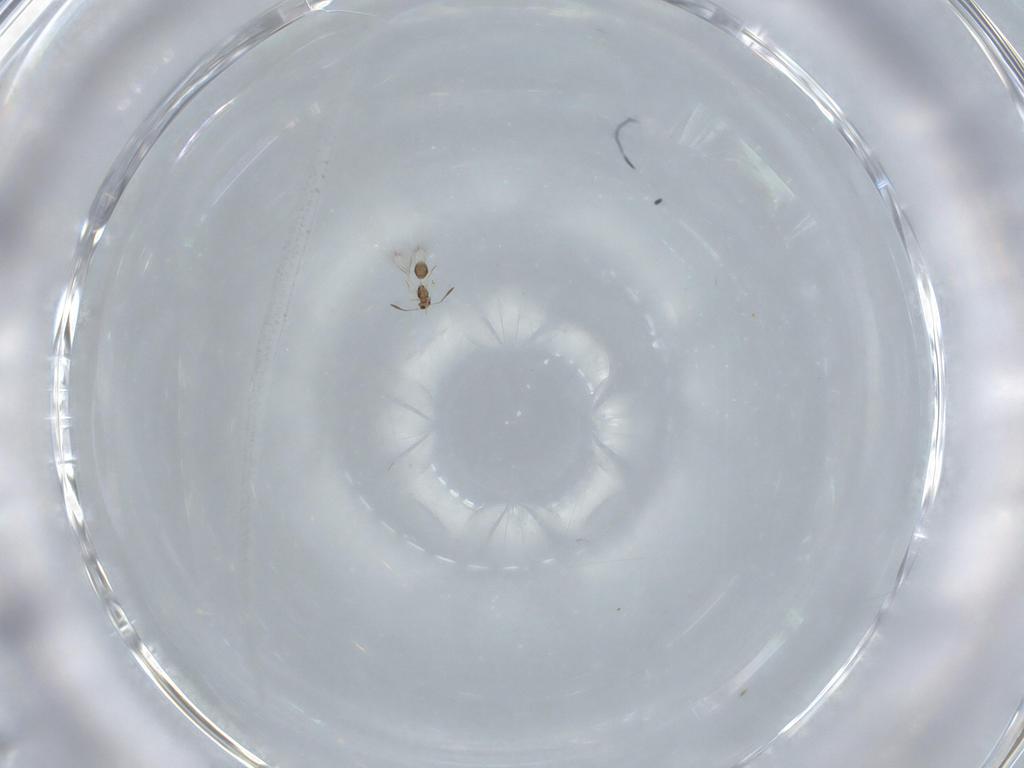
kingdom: Animalia
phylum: Arthropoda
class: Insecta
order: Hymenoptera
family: Mymarommatidae
